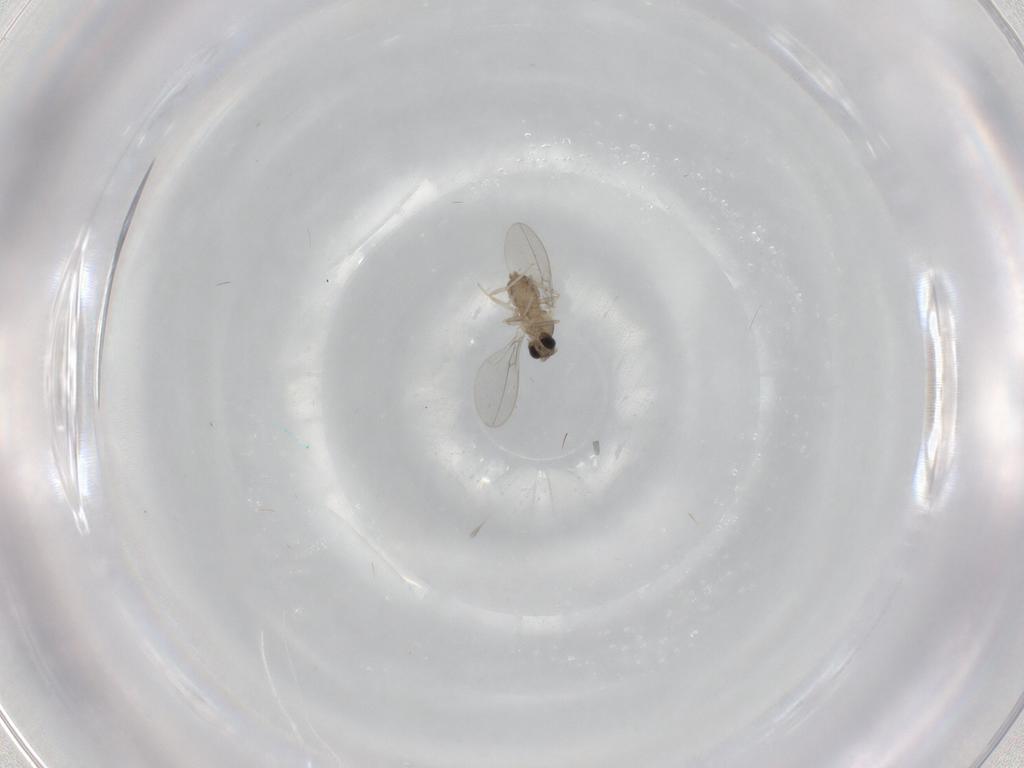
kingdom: Animalia
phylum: Arthropoda
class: Insecta
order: Diptera
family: Cecidomyiidae
